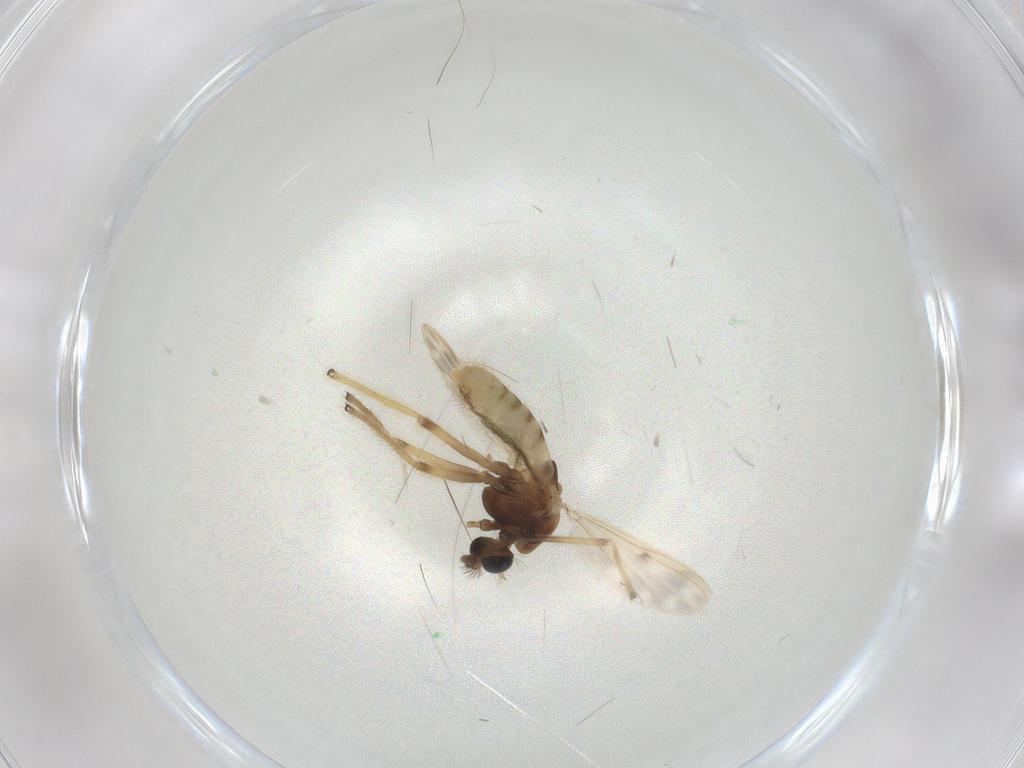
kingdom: Animalia
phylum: Arthropoda
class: Insecta
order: Diptera
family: Chironomidae
